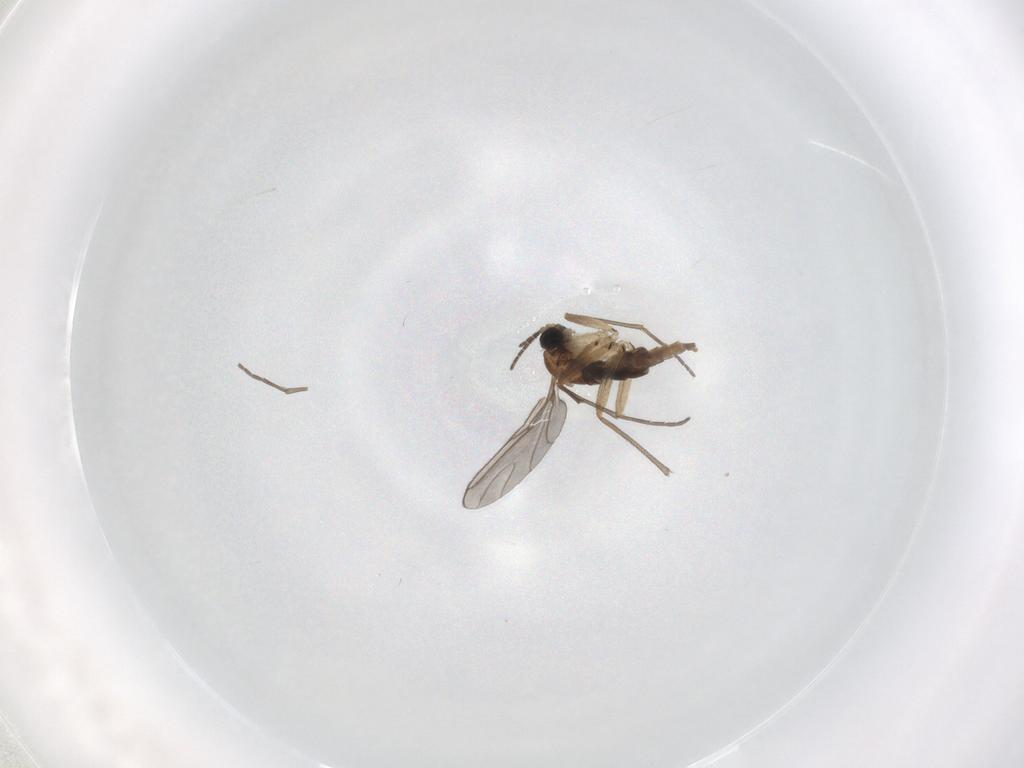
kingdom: Animalia
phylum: Arthropoda
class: Insecta
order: Diptera
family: Sciaridae
